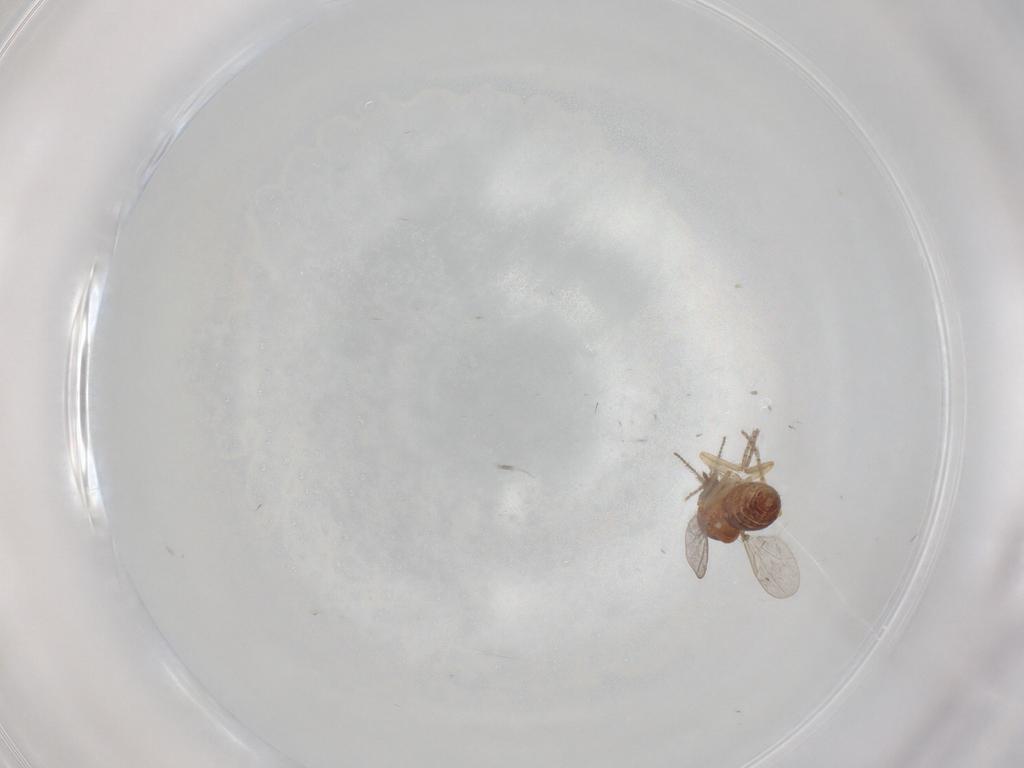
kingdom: Animalia
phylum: Arthropoda
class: Insecta
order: Diptera
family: Ceratopogonidae
